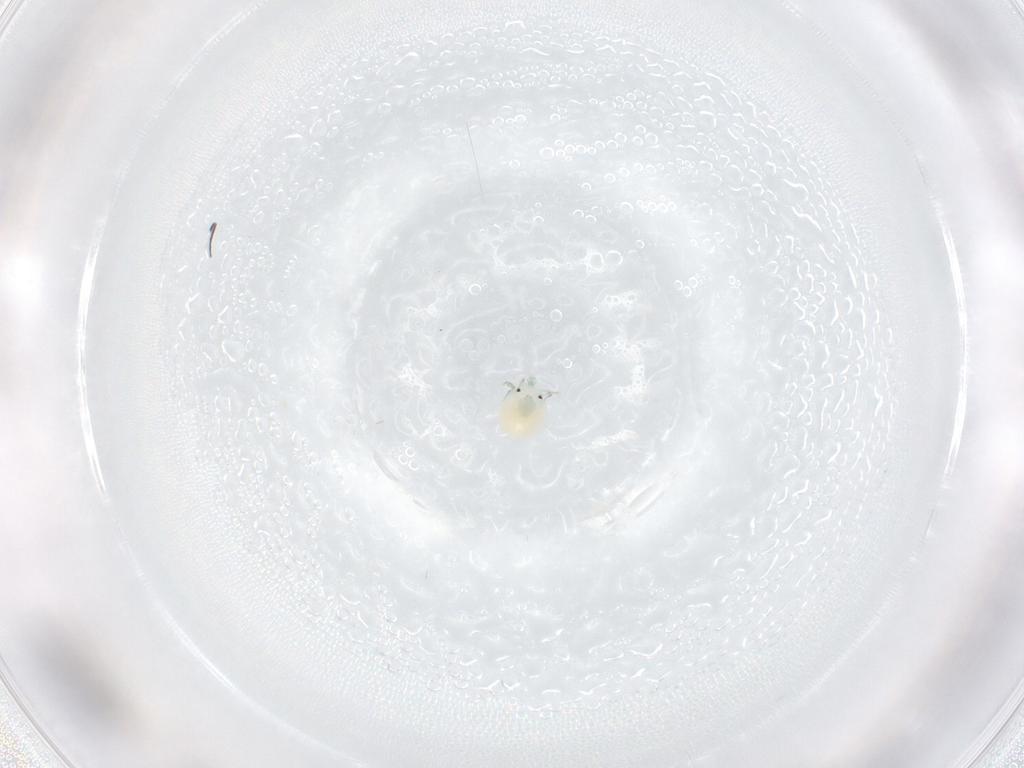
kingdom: Animalia
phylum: Arthropoda
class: Arachnida
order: Trombidiformes
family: Arrenuridae
